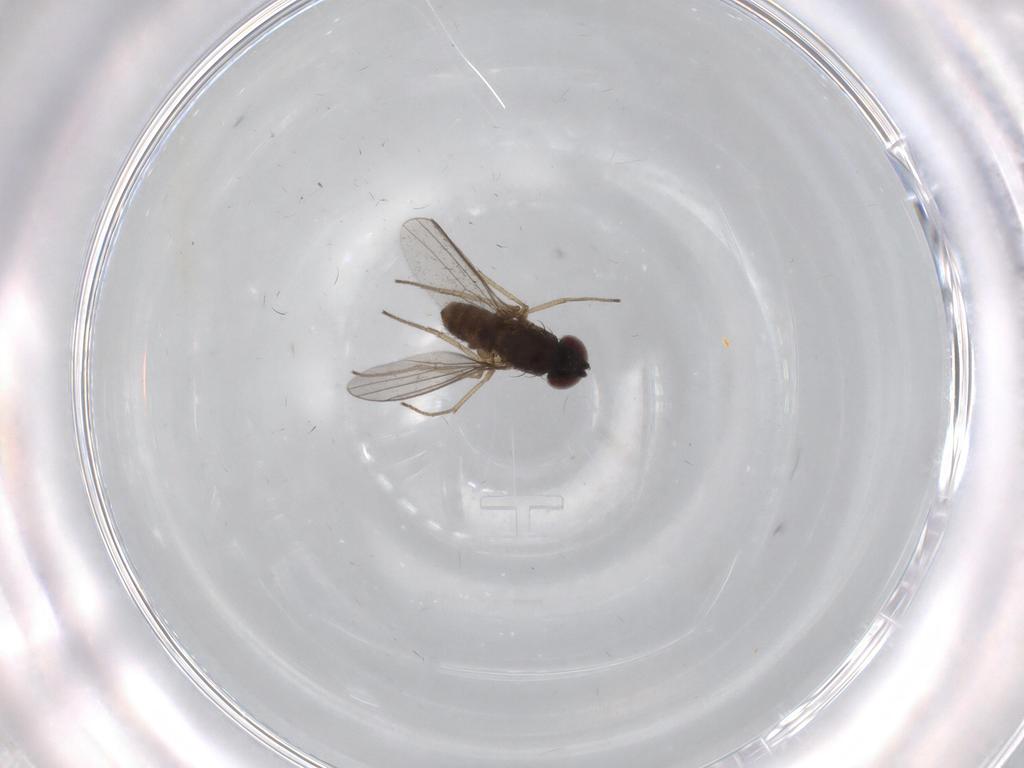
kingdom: Animalia
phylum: Arthropoda
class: Insecta
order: Diptera
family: Dolichopodidae
